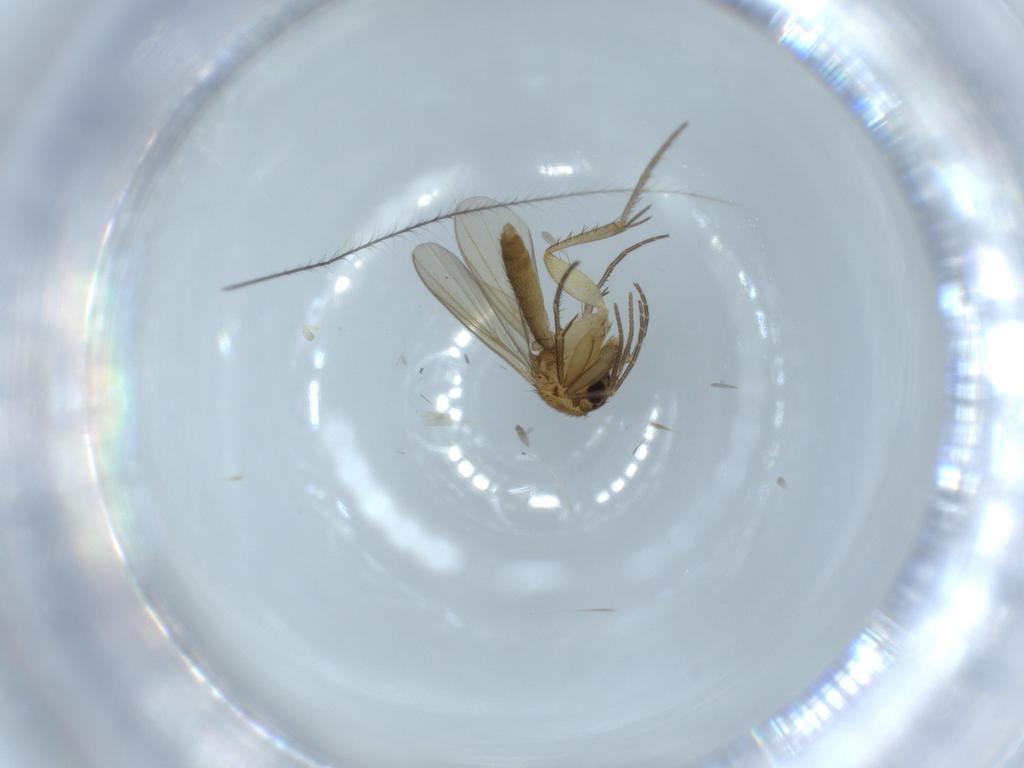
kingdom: Animalia
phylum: Arthropoda
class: Insecta
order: Diptera
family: Mycetophilidae
